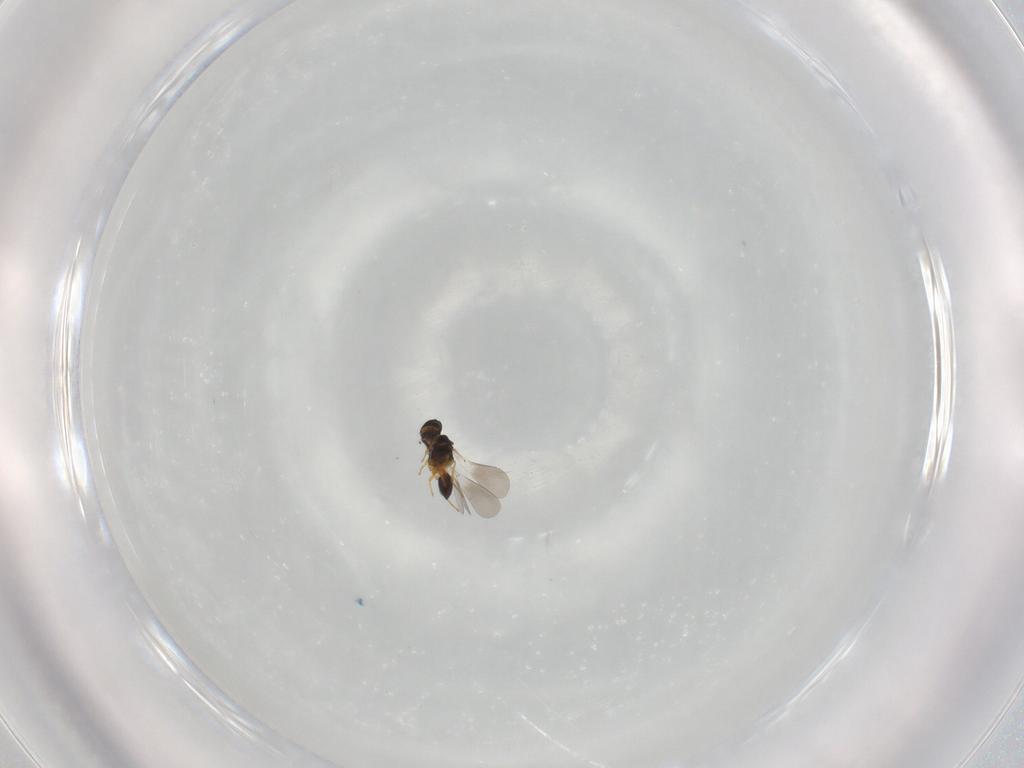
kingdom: Animalia
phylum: Arthropoda
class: Insecta
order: Hymenoptera
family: Platygastridae
